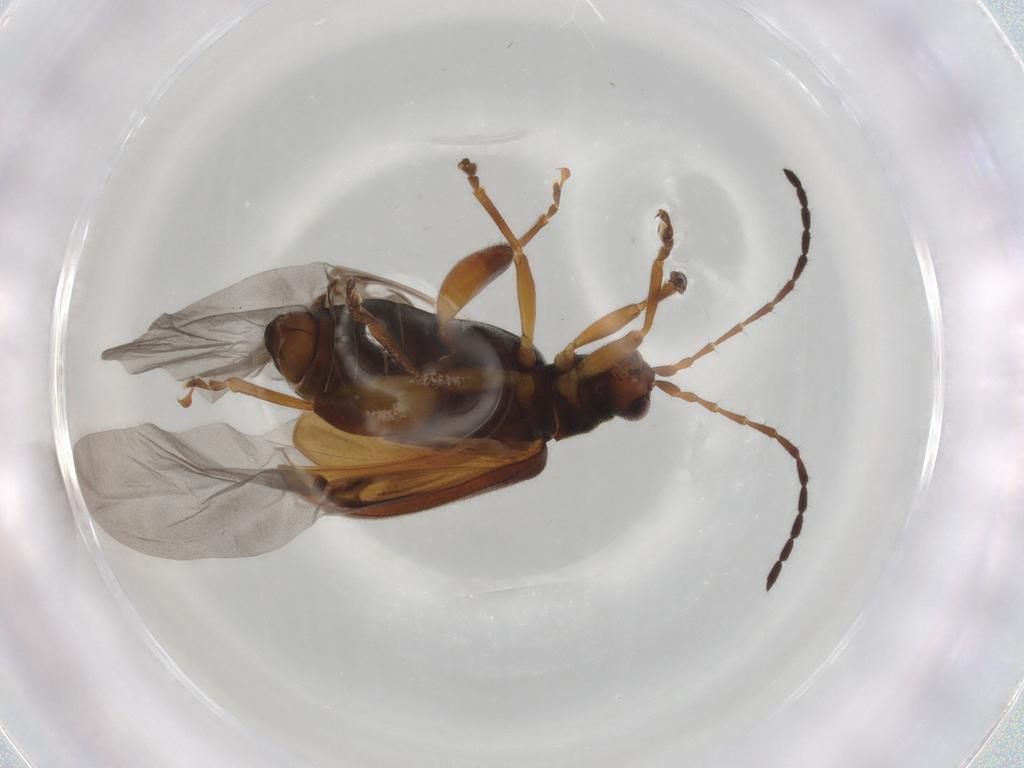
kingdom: Animalia
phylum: Arthropoda
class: Insecta
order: Coleoptera
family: Chrysomelidae
